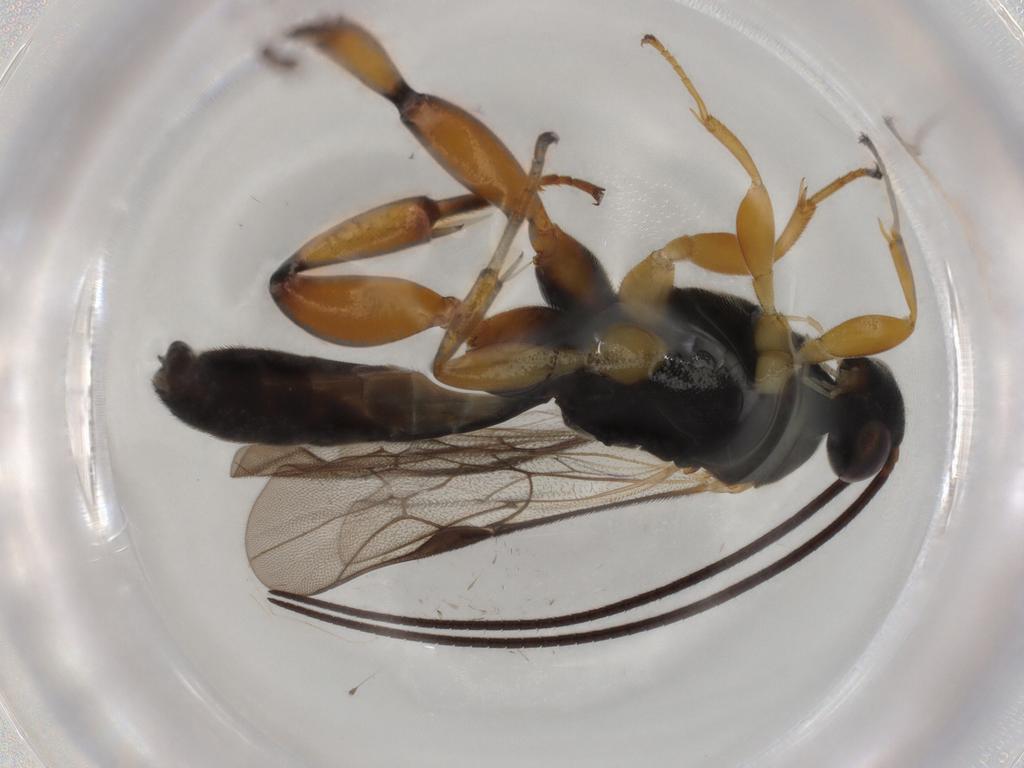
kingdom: Animalia
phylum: Arthropoda
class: Insecta
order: Hymenoptera
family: Ichneumonidae
